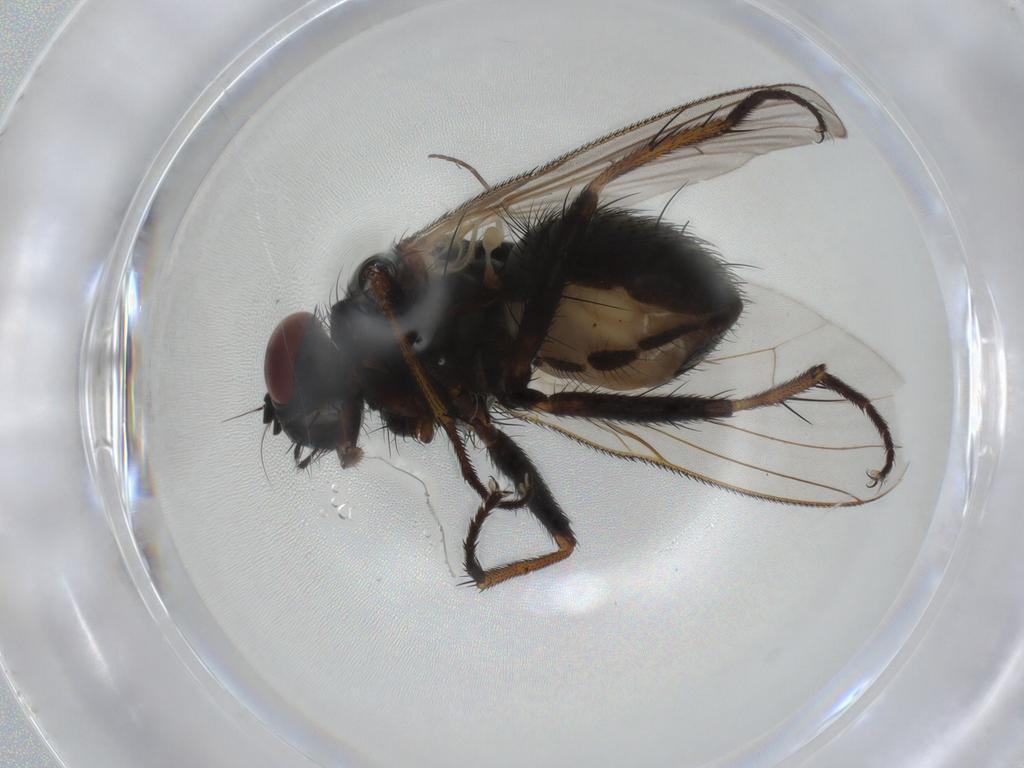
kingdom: Animalia
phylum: Arthropoda
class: Insecta
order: Diptera
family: Muscidae
